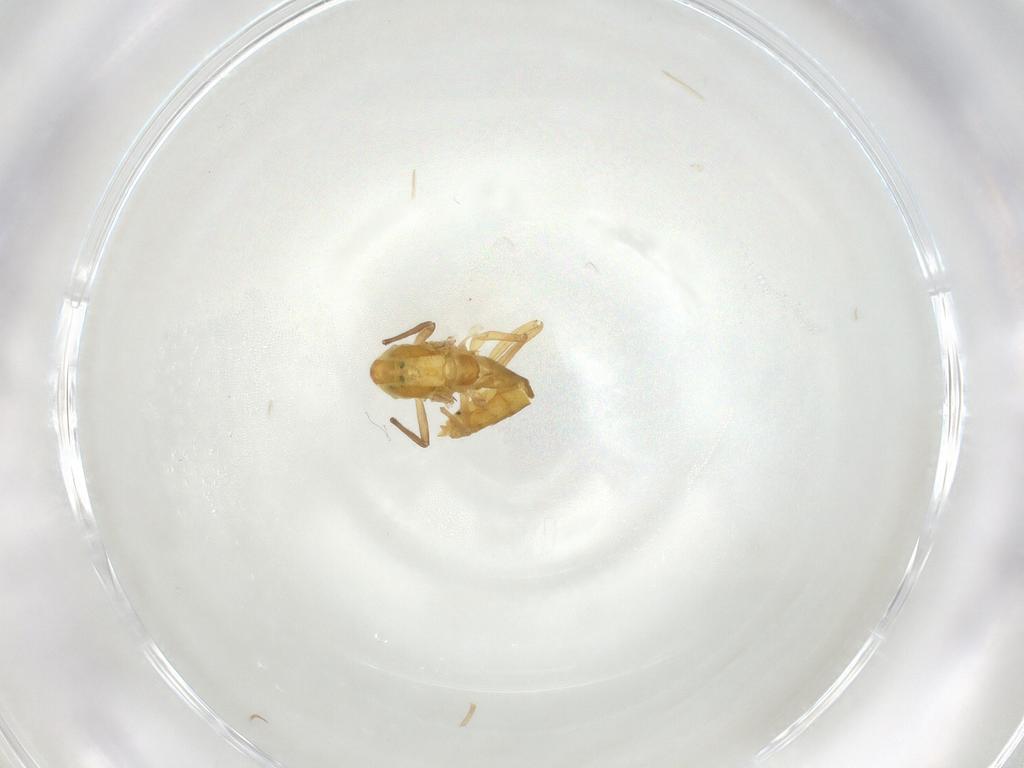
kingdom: Animalia
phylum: Arthropoda
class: Insecta
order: Diptera
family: Chironomidae
